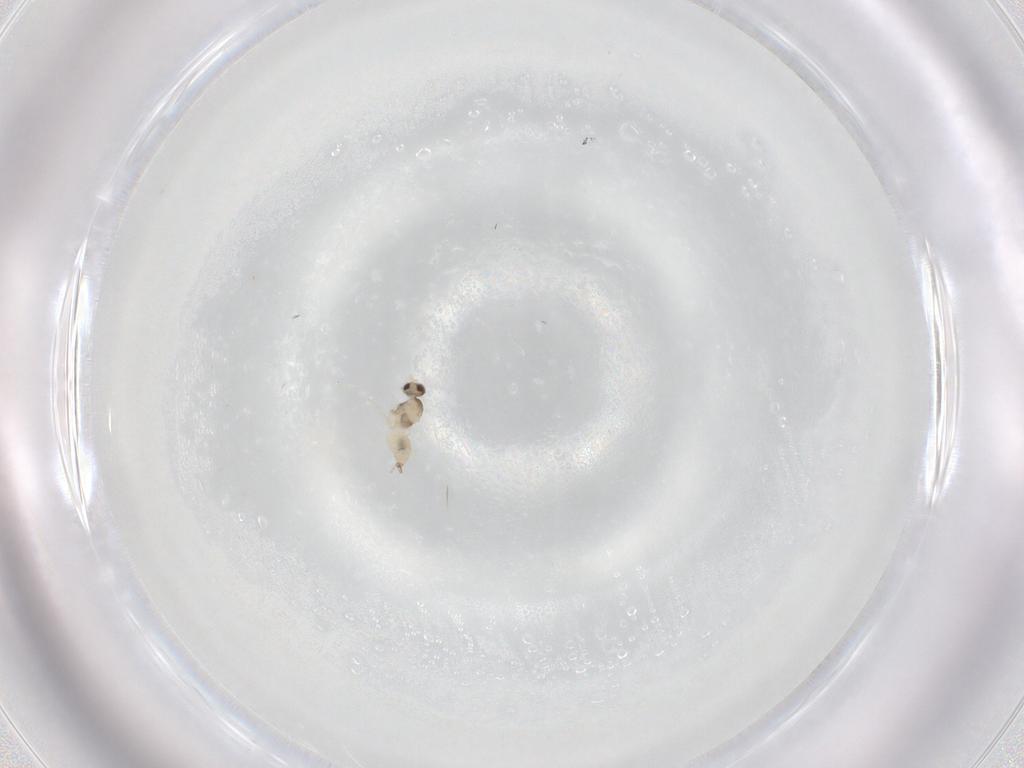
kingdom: Animalia
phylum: Arthropoda
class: Insecta
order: Diptera
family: Cecidomyiidae
